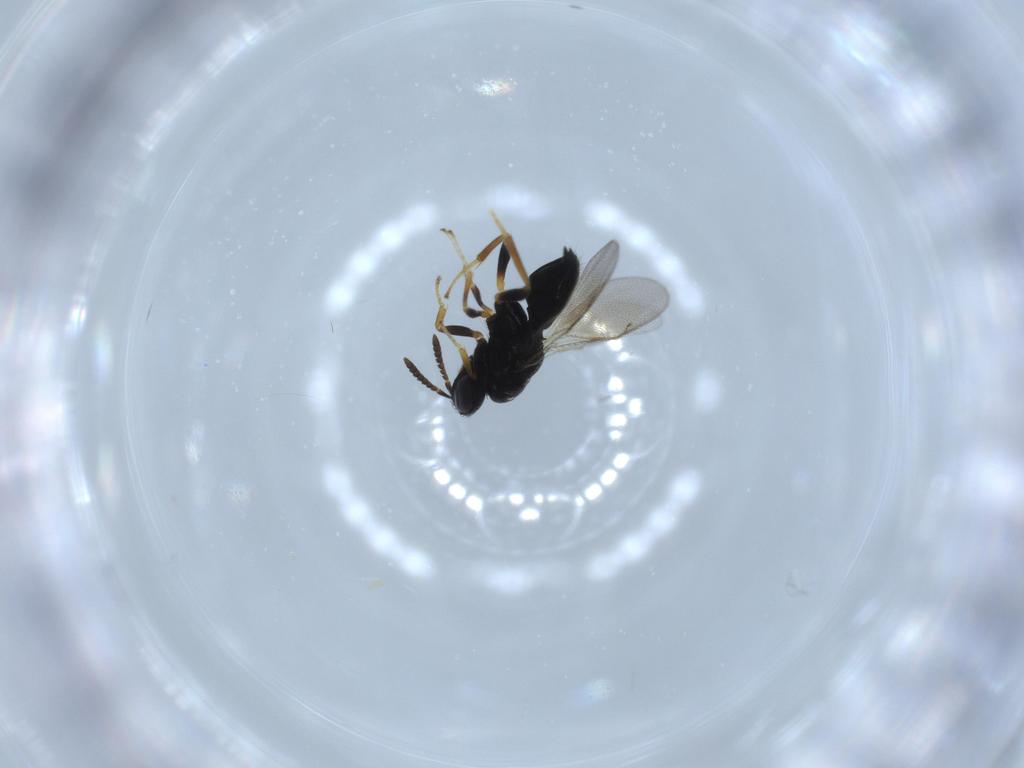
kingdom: Animalia
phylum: Arthropoda
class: Insecta
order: Hymenoptera
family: Pteromalidae
